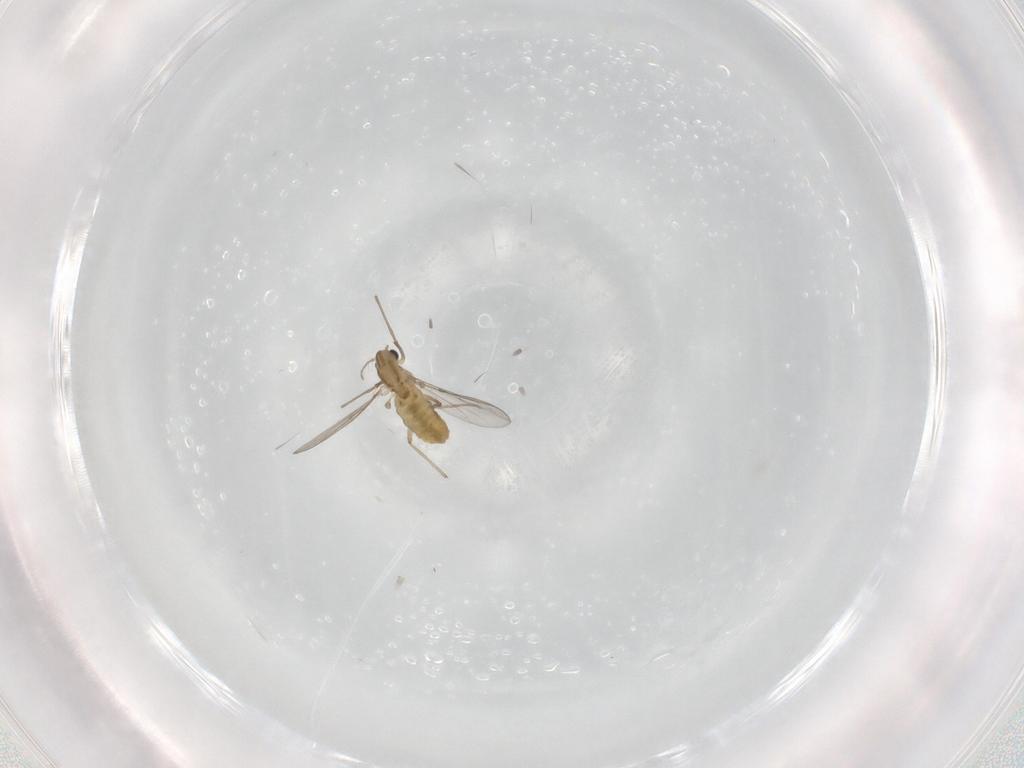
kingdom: Animalia
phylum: Arthropoda
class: Insecta
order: Diptera
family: Chironomidae
